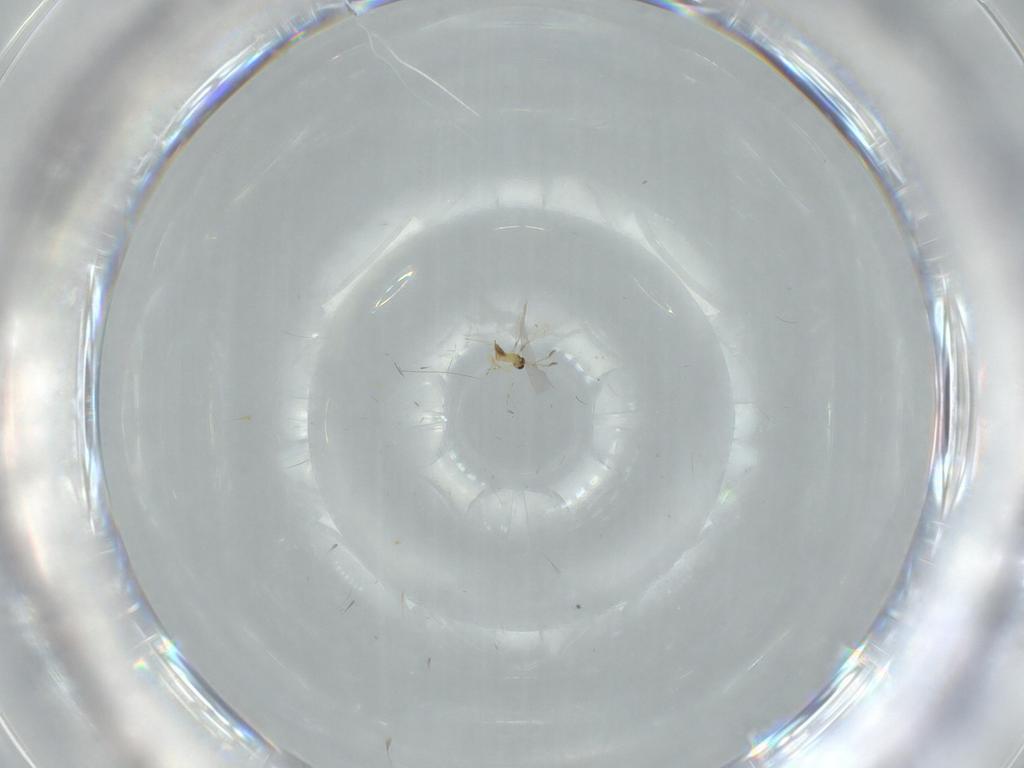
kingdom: Animalia
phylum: Arthropoda
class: Insecta
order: Hymenoptera
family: Mymaridae
